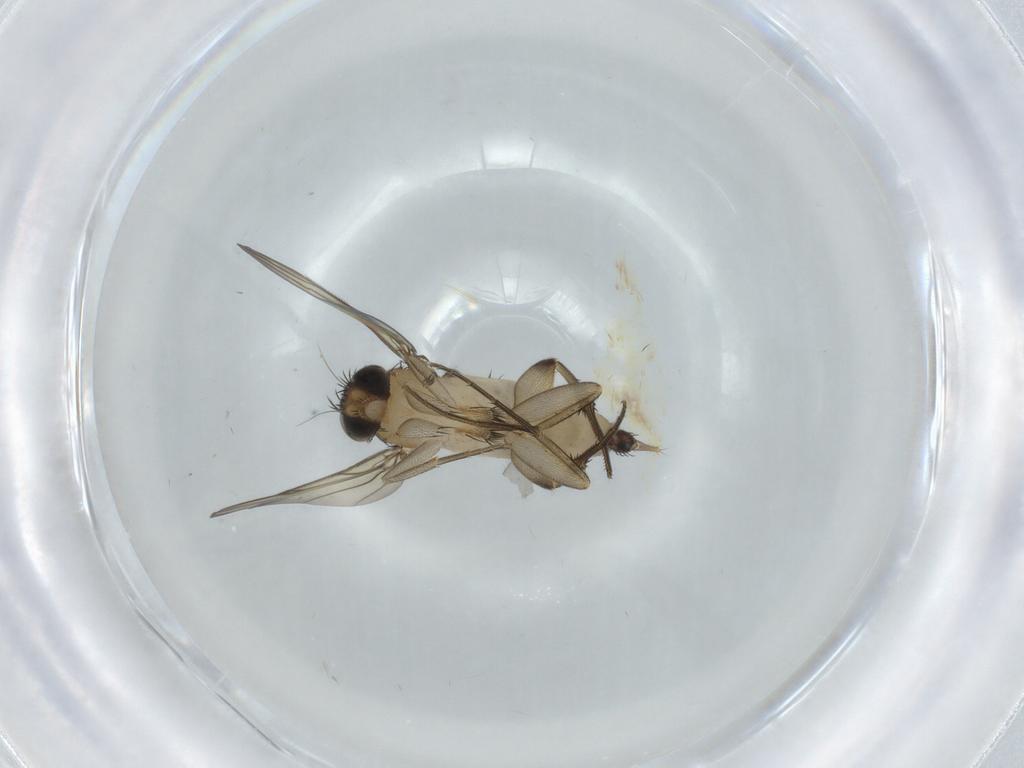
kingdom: Animalia
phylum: Arthropoda
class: Insecta
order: Diptera
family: Phoridae
